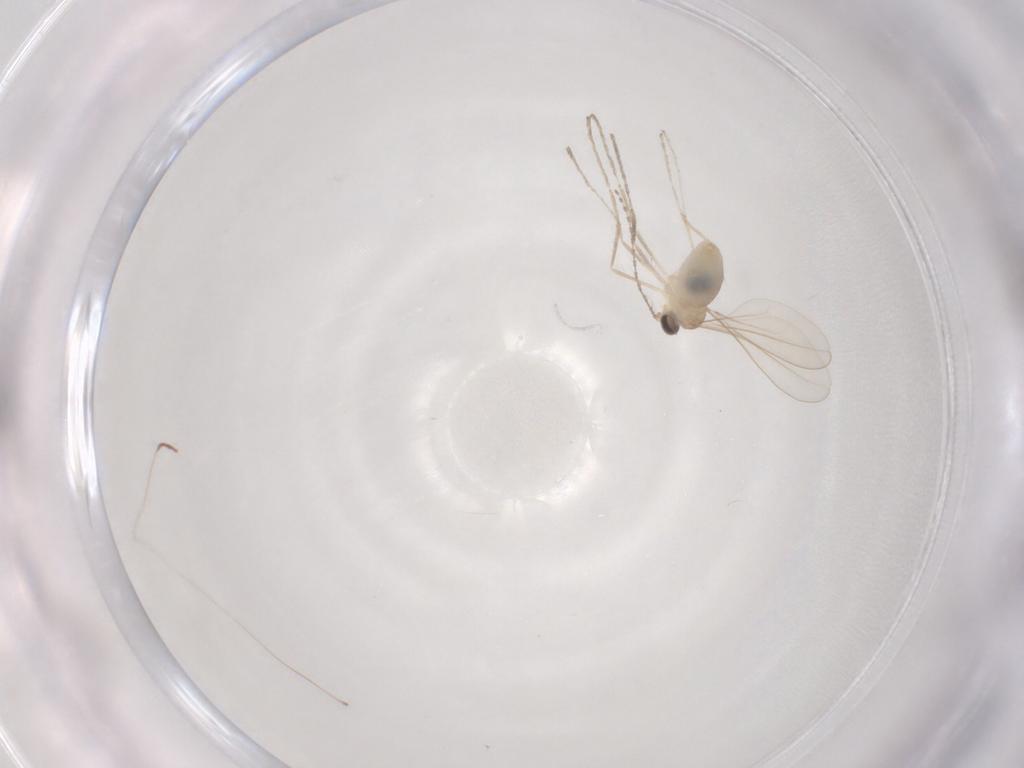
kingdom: Animalia
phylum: Arthropoda
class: Insecta
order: Diptera
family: Cecidomyiidae
